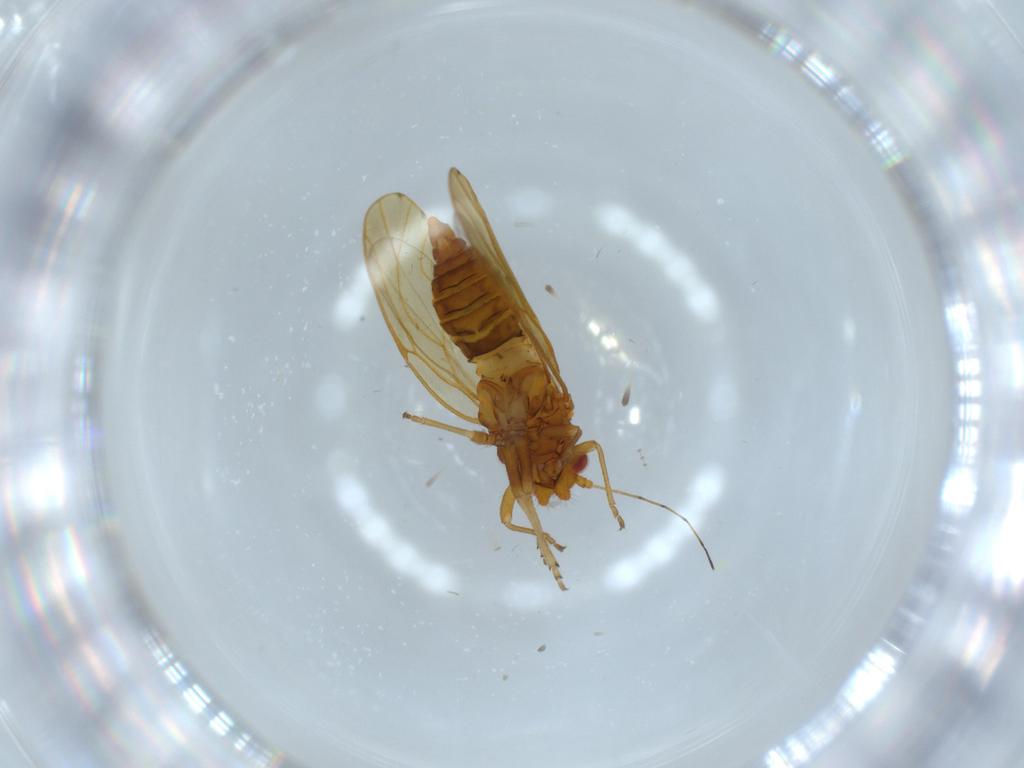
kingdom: Animalia
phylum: Arthropoda
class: Insecta
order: Hemiptera
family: Psylloidea_incertae_sedis
